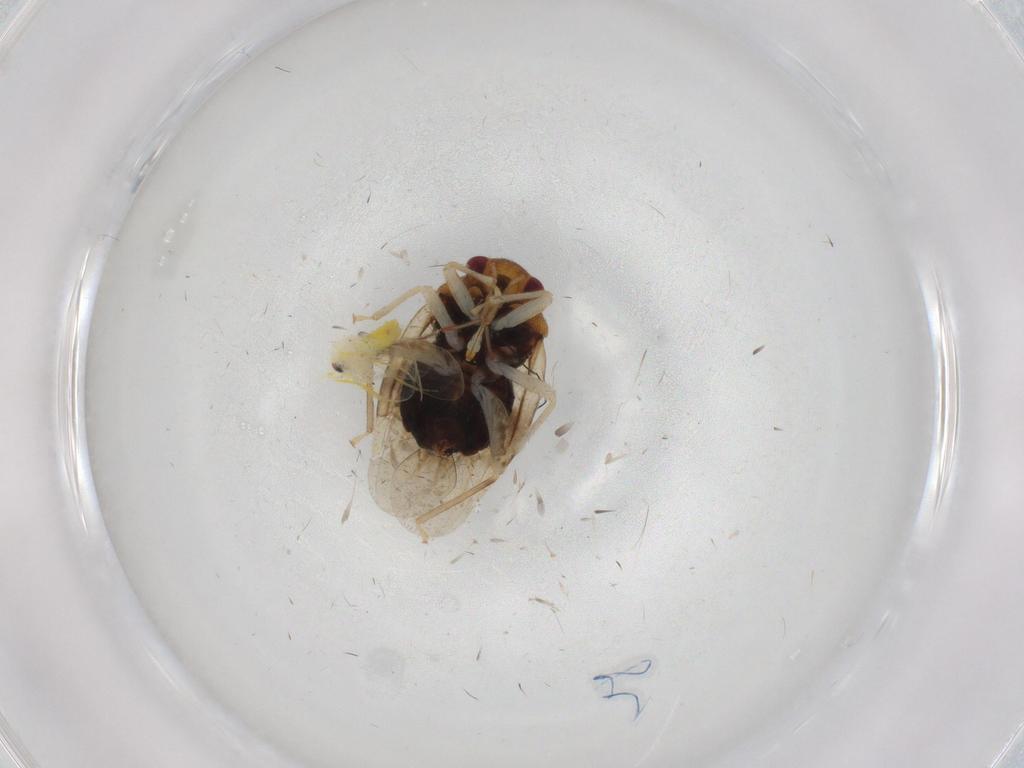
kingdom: Animalia
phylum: Arthropoda
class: Insecta
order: Hemiptera
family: Miridae
